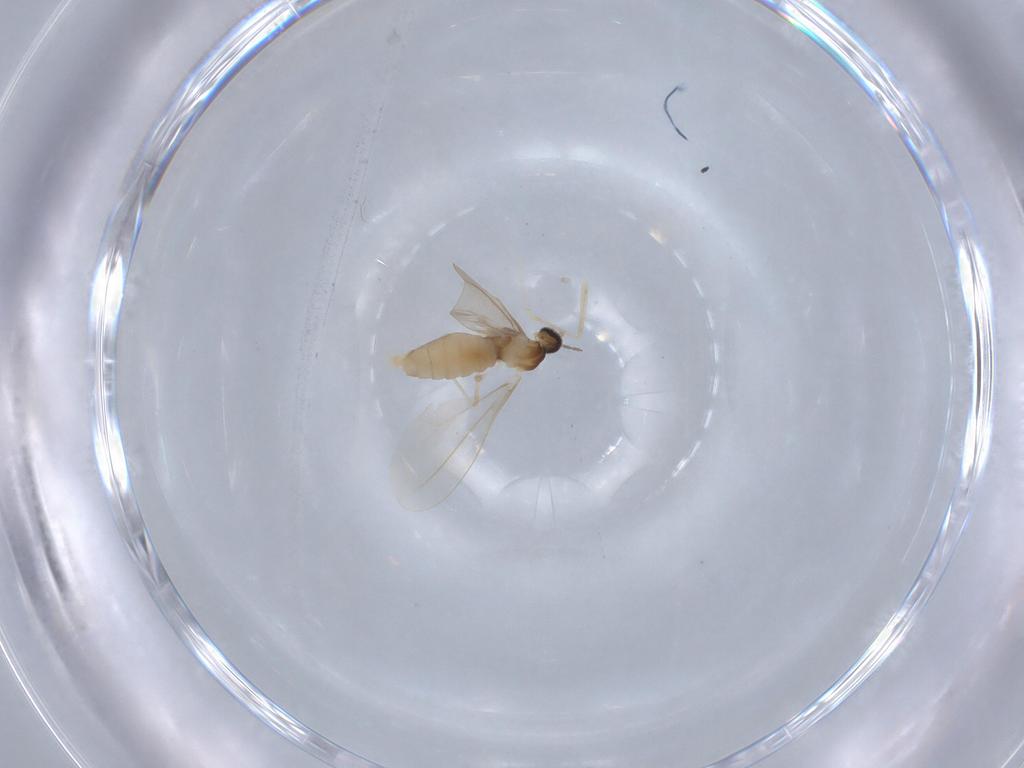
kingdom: Animalia
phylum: Arthropoda
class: Insecta
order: Diptera
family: Cecidomyiidae
